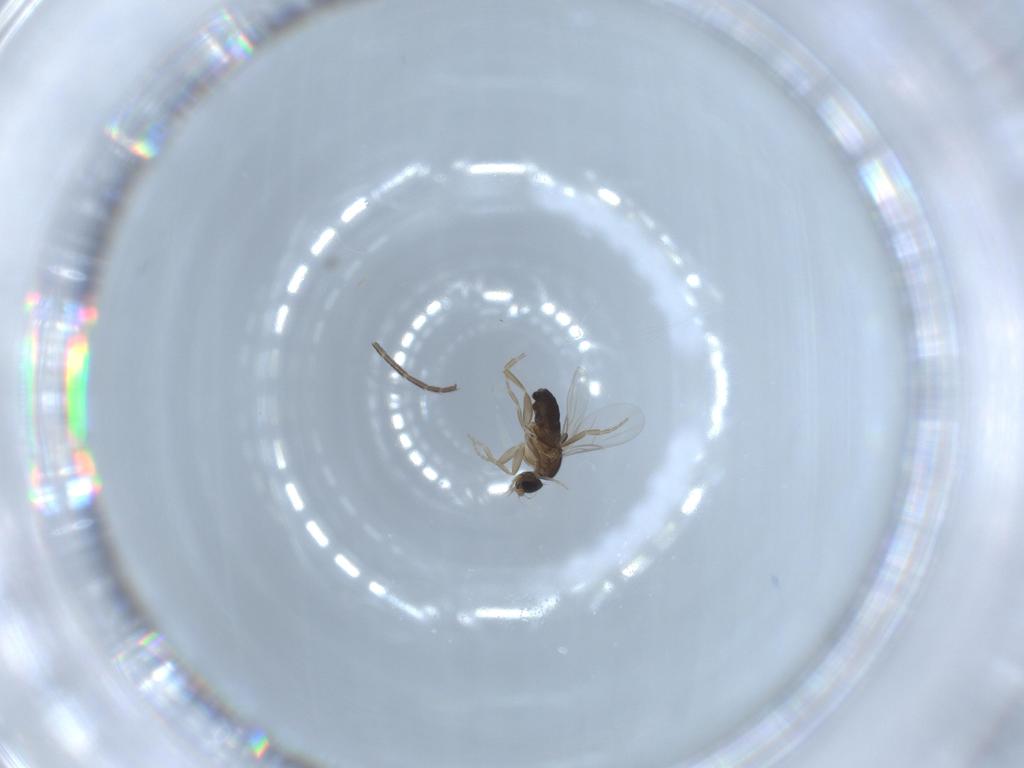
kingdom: Animalia
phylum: Arthropoda
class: Insecta
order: Diptera
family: Mycetophilidae
